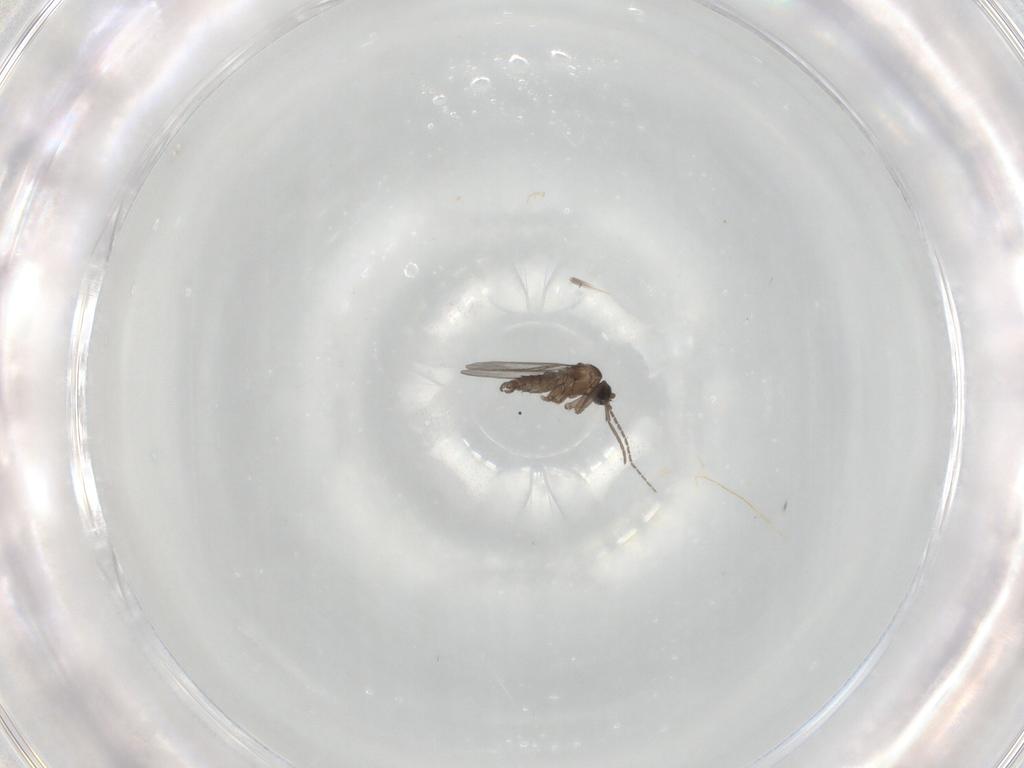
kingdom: Animalia
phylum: Arthropoda
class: Insecta
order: Diptera
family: Sciaridae
